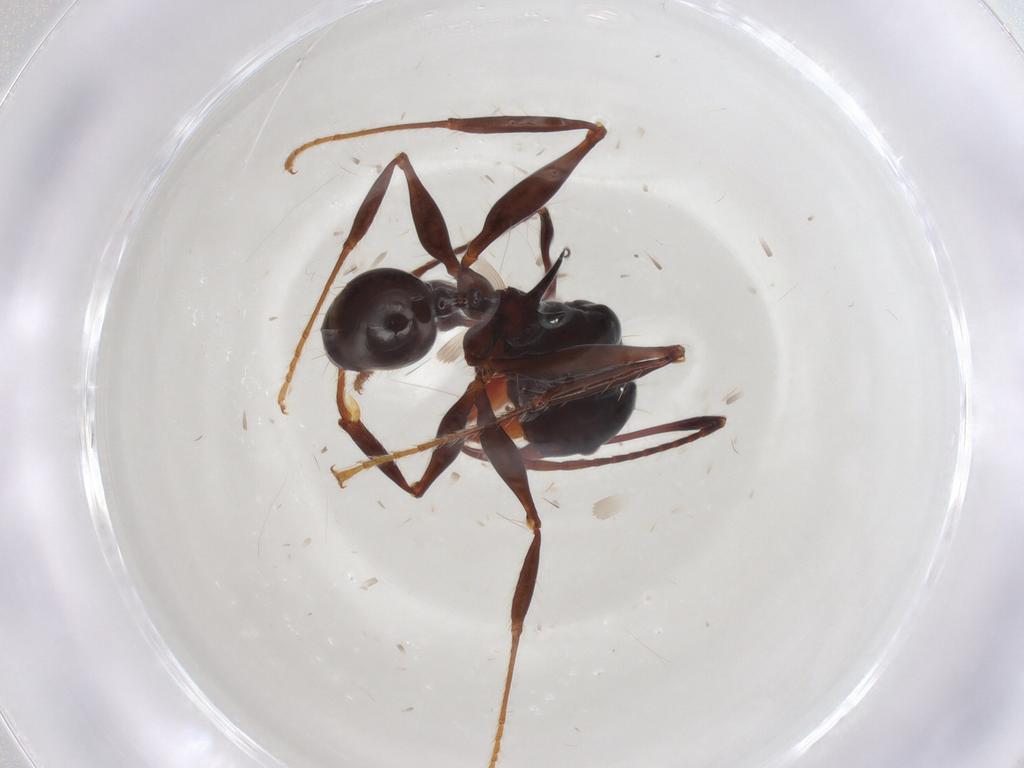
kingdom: Animalia
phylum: Arthropoda
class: Insecta
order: Hymenoptera
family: Formicidae
